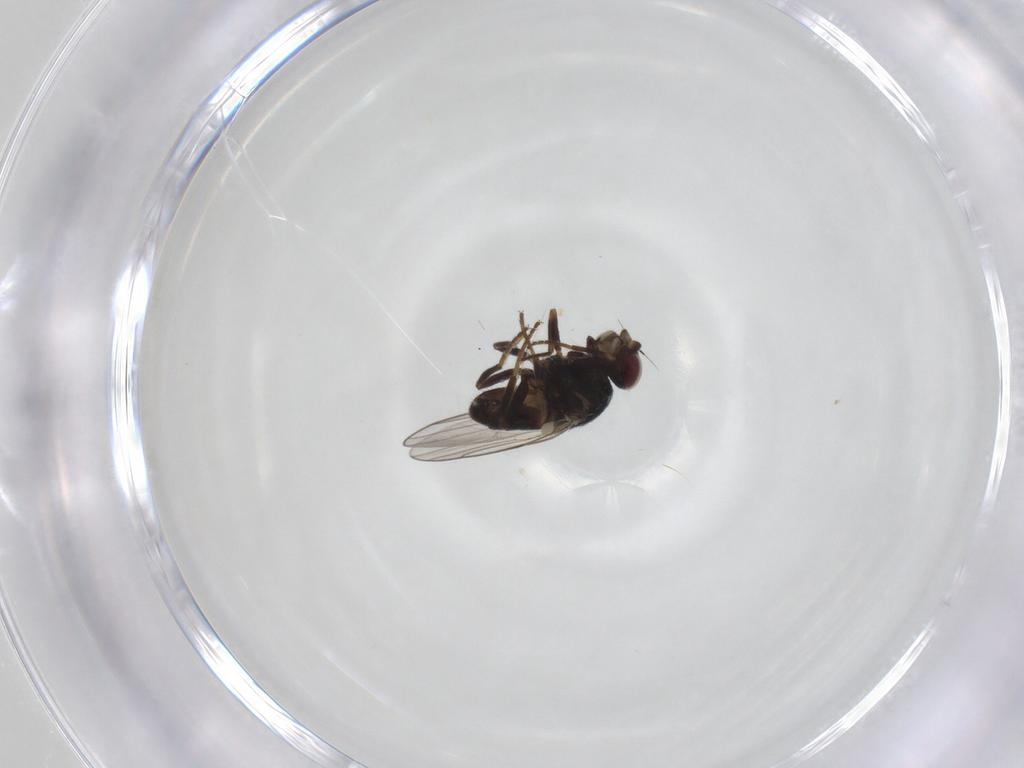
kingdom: Animalia
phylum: Arthropoda
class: Insecta
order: Diptera
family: Chloropidae
